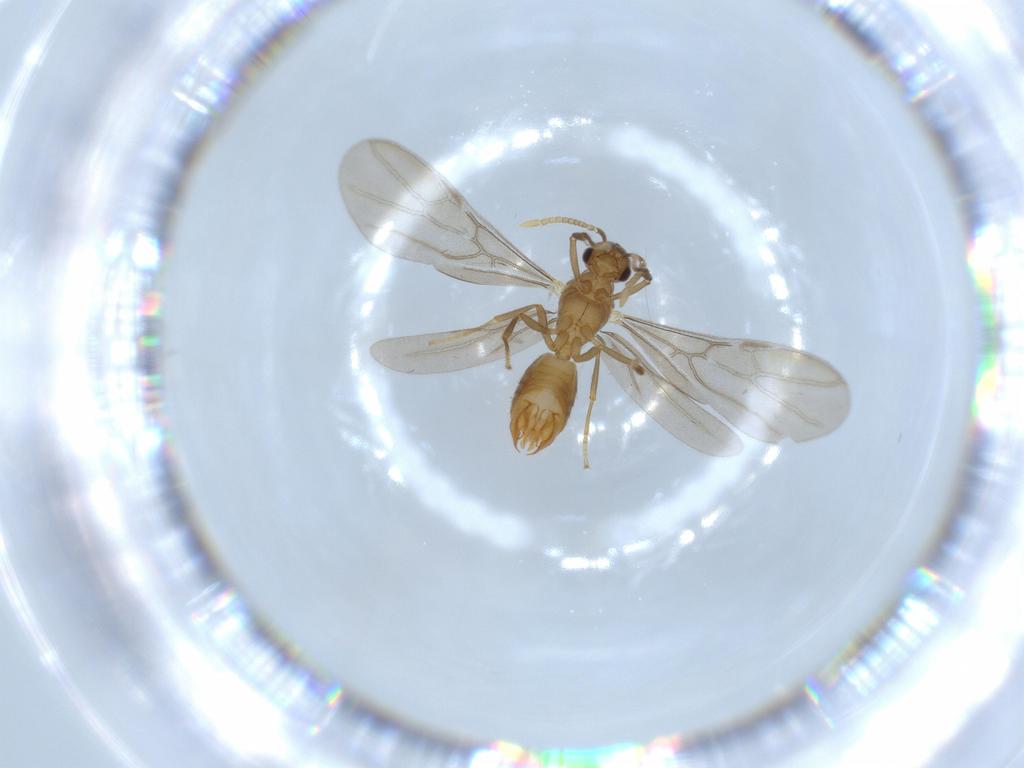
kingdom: Animalia
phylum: Arthropoda
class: Insecta
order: Hymenoptera
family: Formicidae
